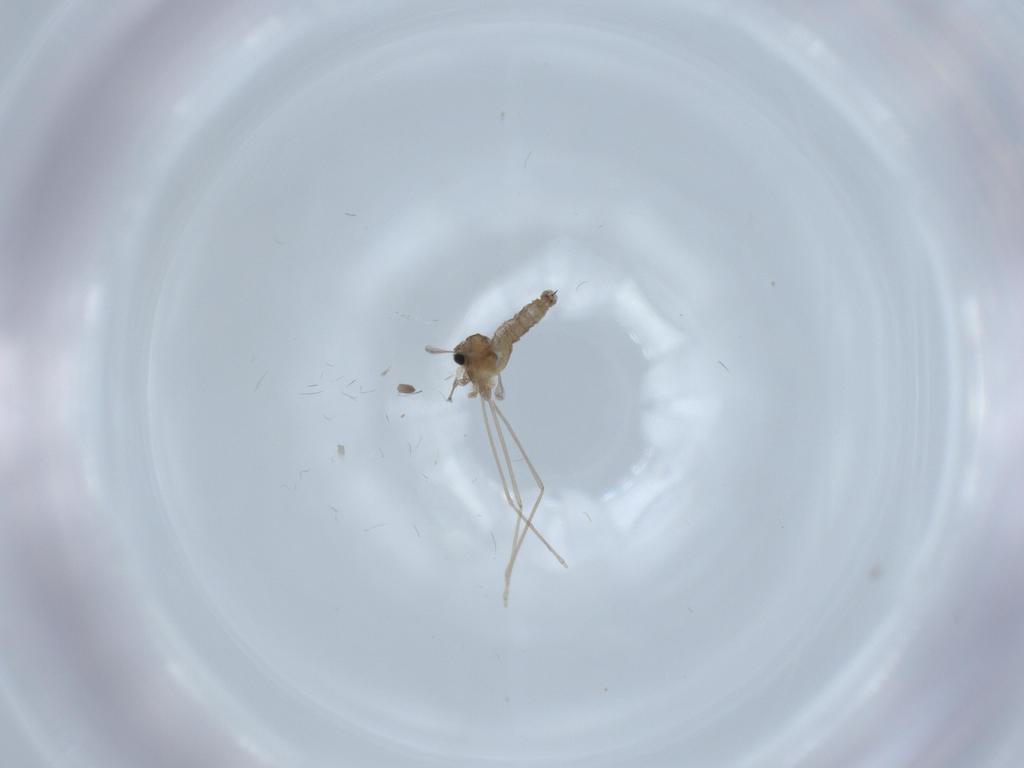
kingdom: Animalia
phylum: Arthropoda
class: Insecta
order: Diptera
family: Cecidomyiidae
